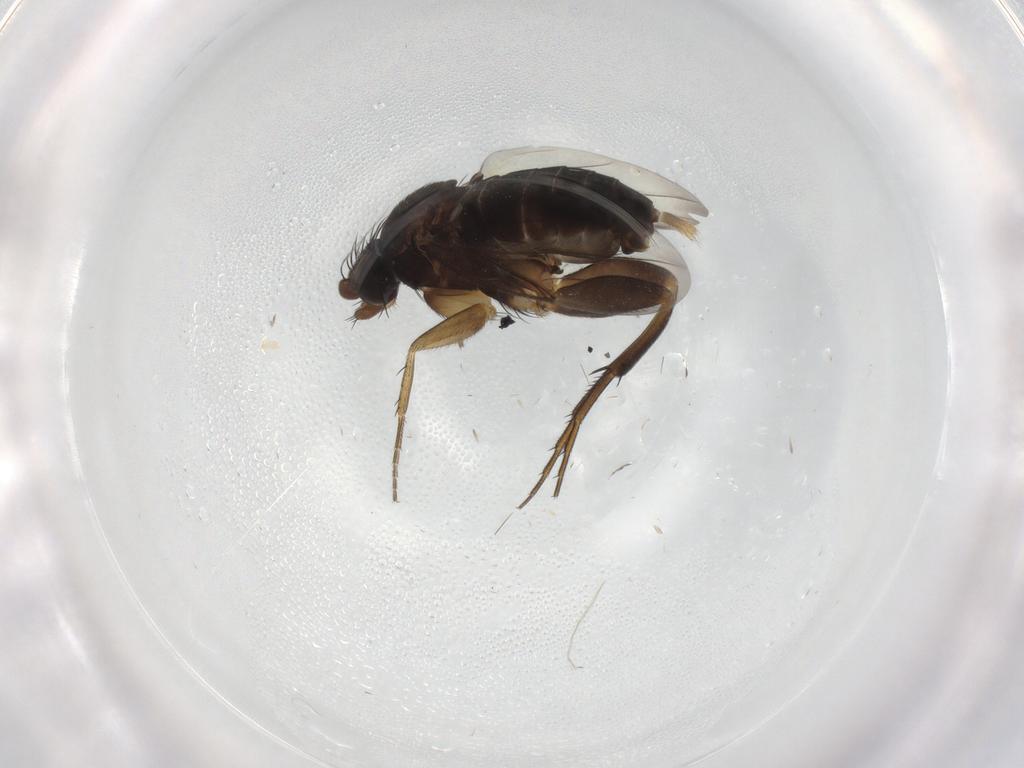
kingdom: Animalia
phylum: Arthropoda
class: Insecta
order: Diptera
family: Phoridae
